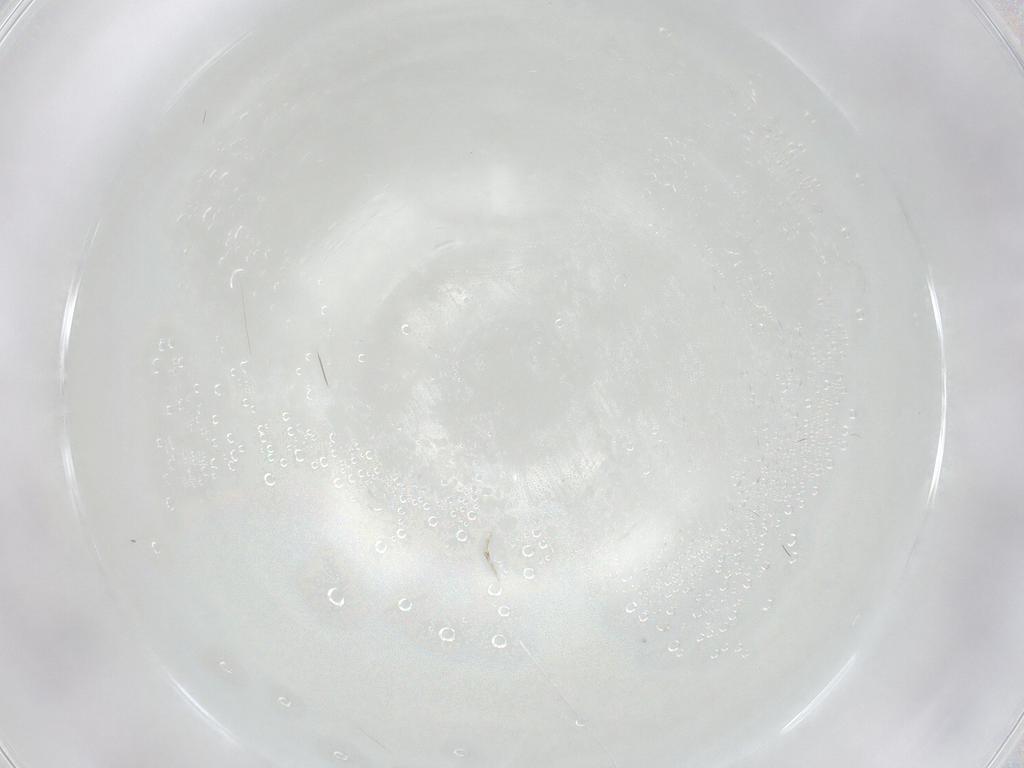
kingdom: Animalia
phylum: Arthropoda
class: Insecta
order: Diptera
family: Cecidomyiidae
